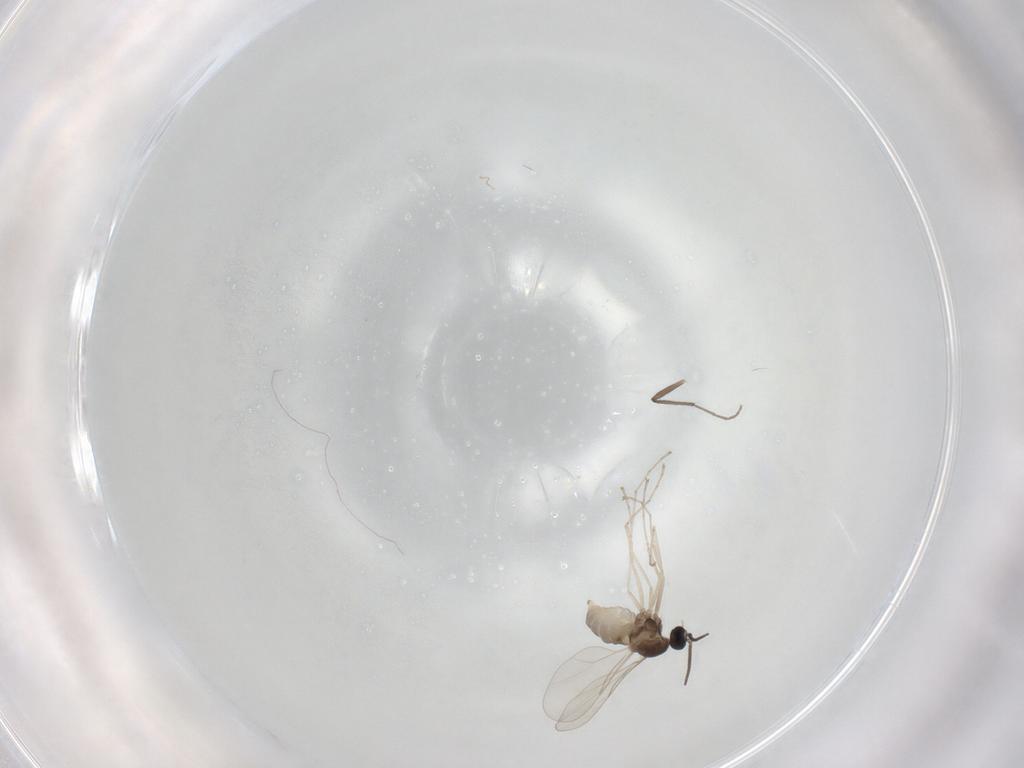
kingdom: Animalia
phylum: Arthropoda
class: Insecta
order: Diptera
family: Cecidomyiidae
